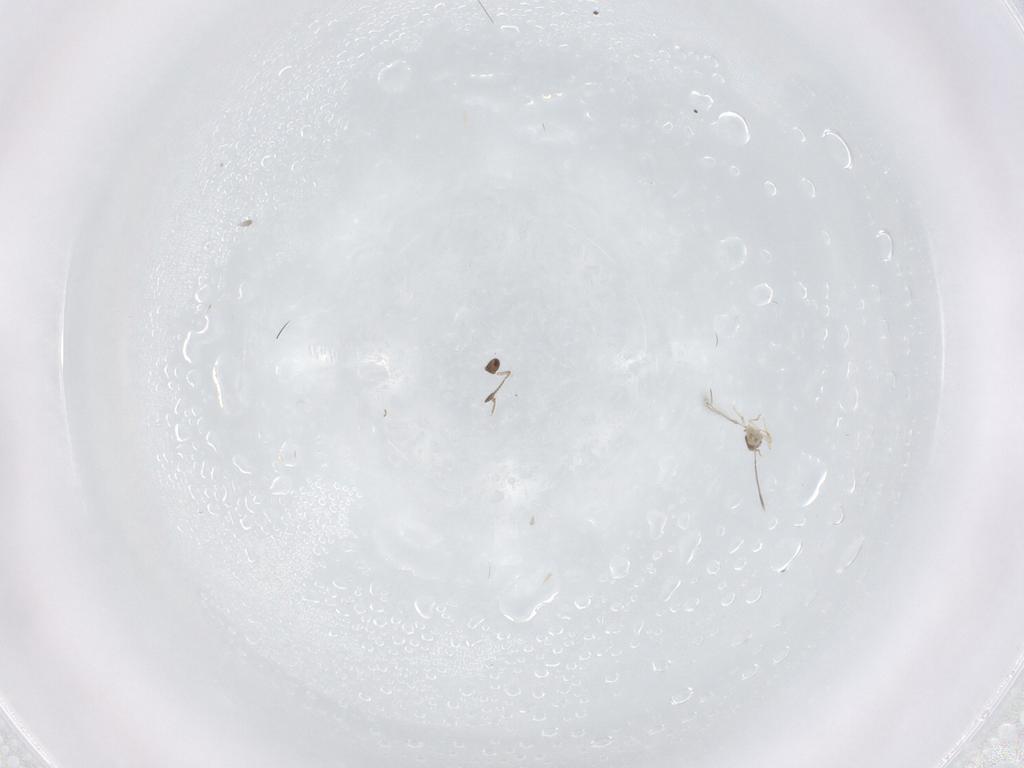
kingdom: Animalia
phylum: Arthropoda
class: Insecta
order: Hymenoptera
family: Mymaridae
